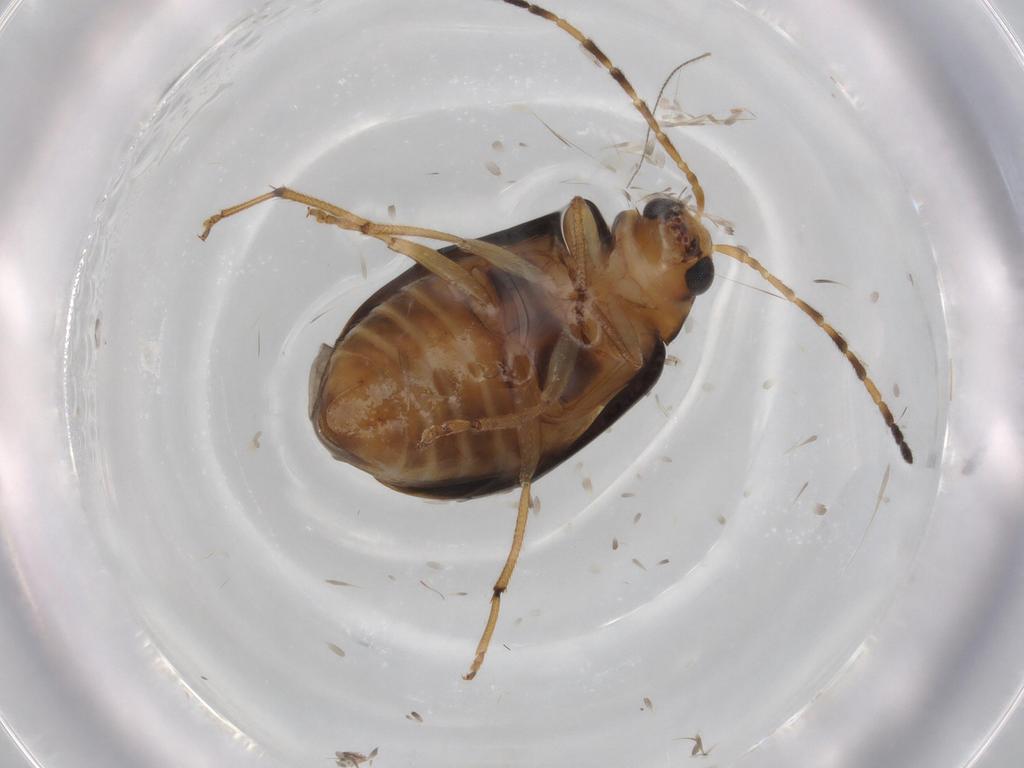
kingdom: Animalia
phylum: Arthropoda
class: Insecta
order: Coleoptera
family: Chrysomelidae
